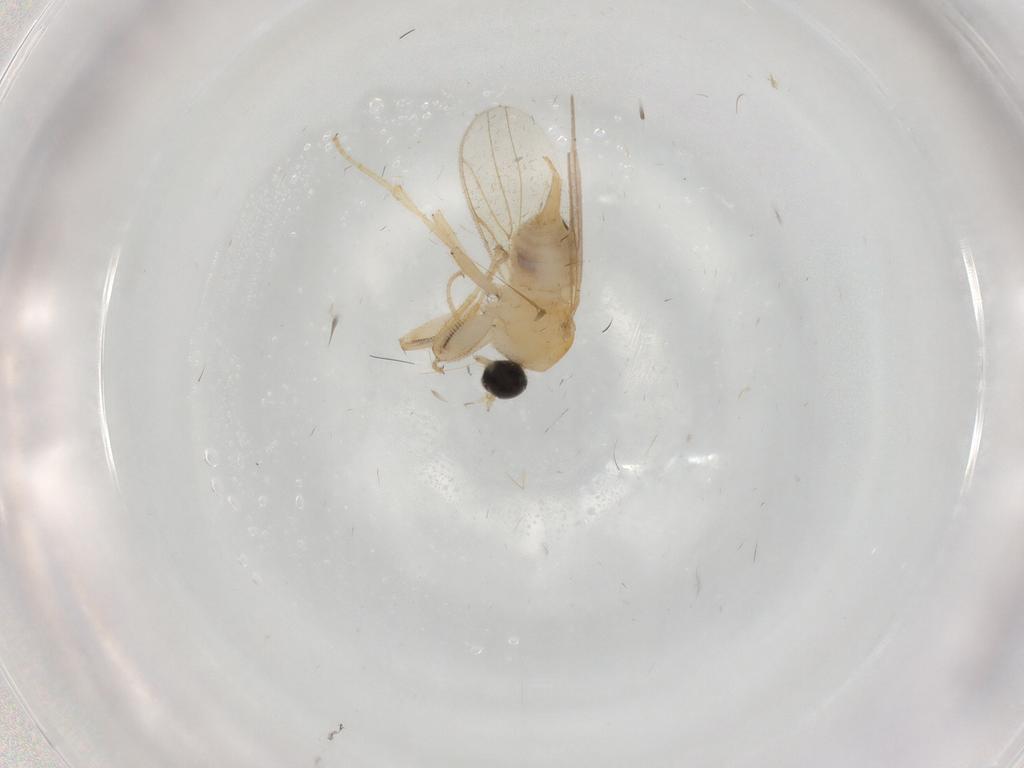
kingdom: Animalia
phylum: Arthropoda
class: Insecta
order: Diptera
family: Cecidomyiidae
